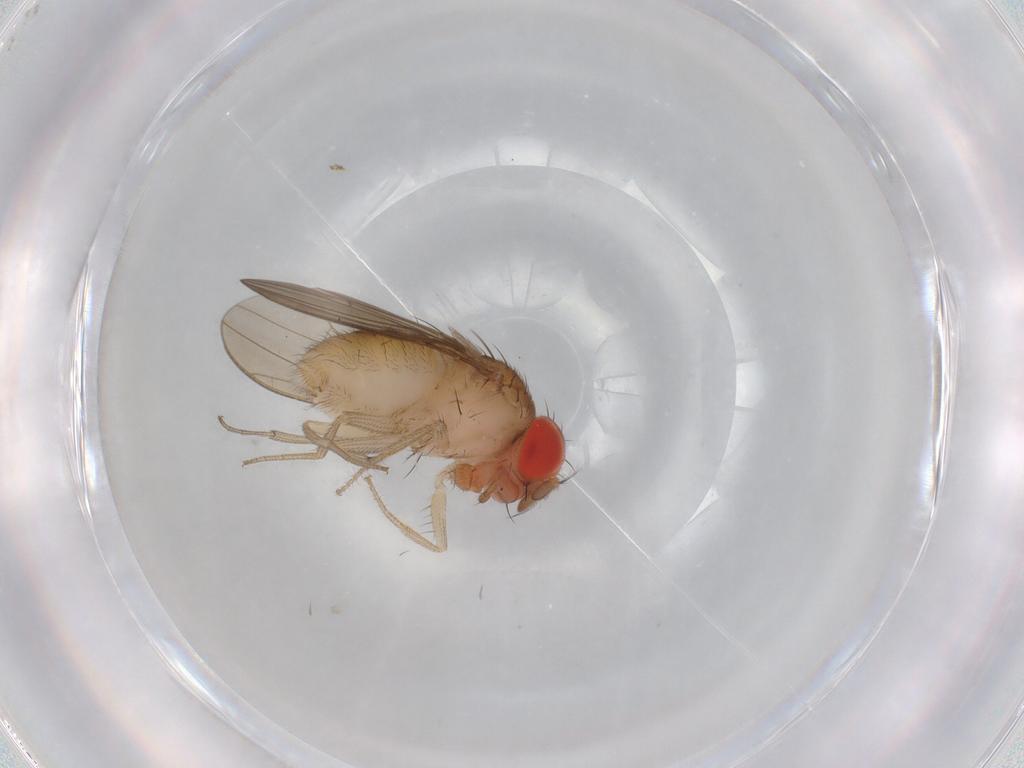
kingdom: Animalia
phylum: Arthropoda
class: Insecta
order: Diptera
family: Drosophilidae
